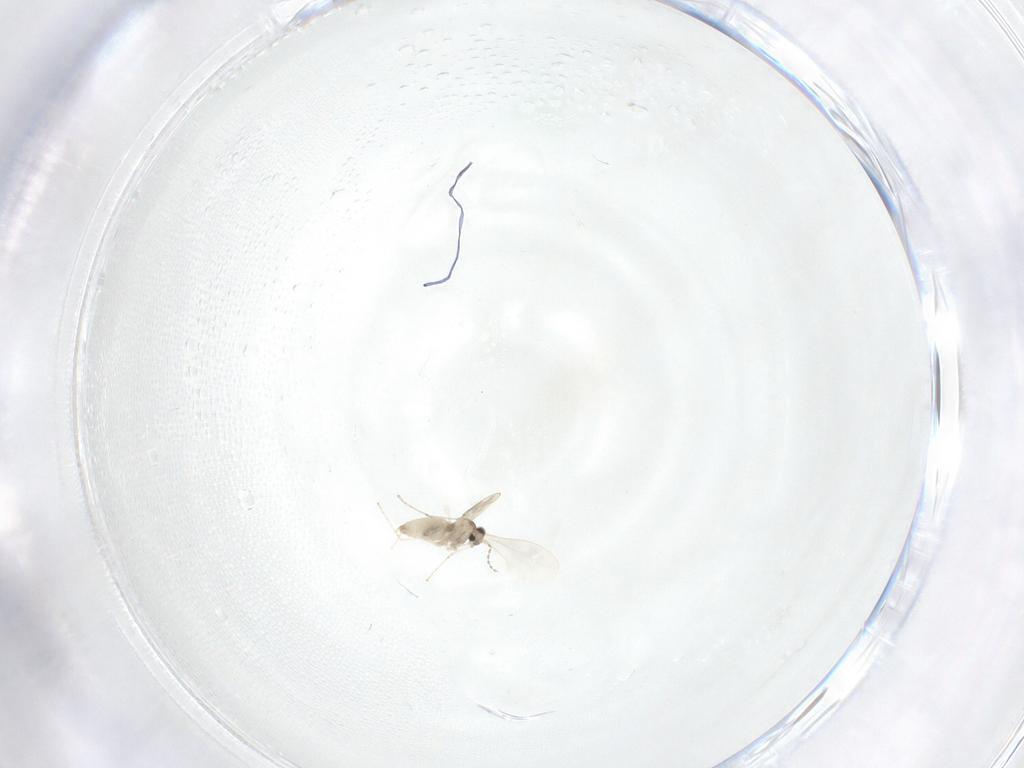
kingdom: Animalia
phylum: Arthropoda
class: Insecta
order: Diptera
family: Cecidomyiidae
